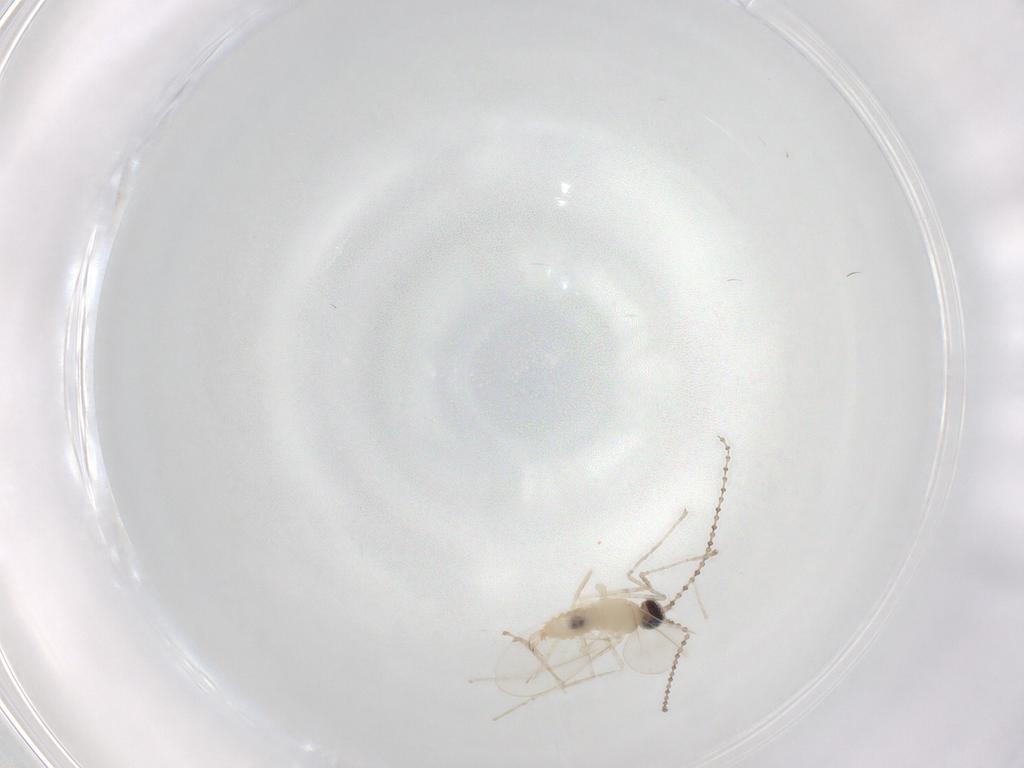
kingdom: Animalia
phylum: Arthropoda
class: Insecta
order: Diptera
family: Cecidomyiidae
